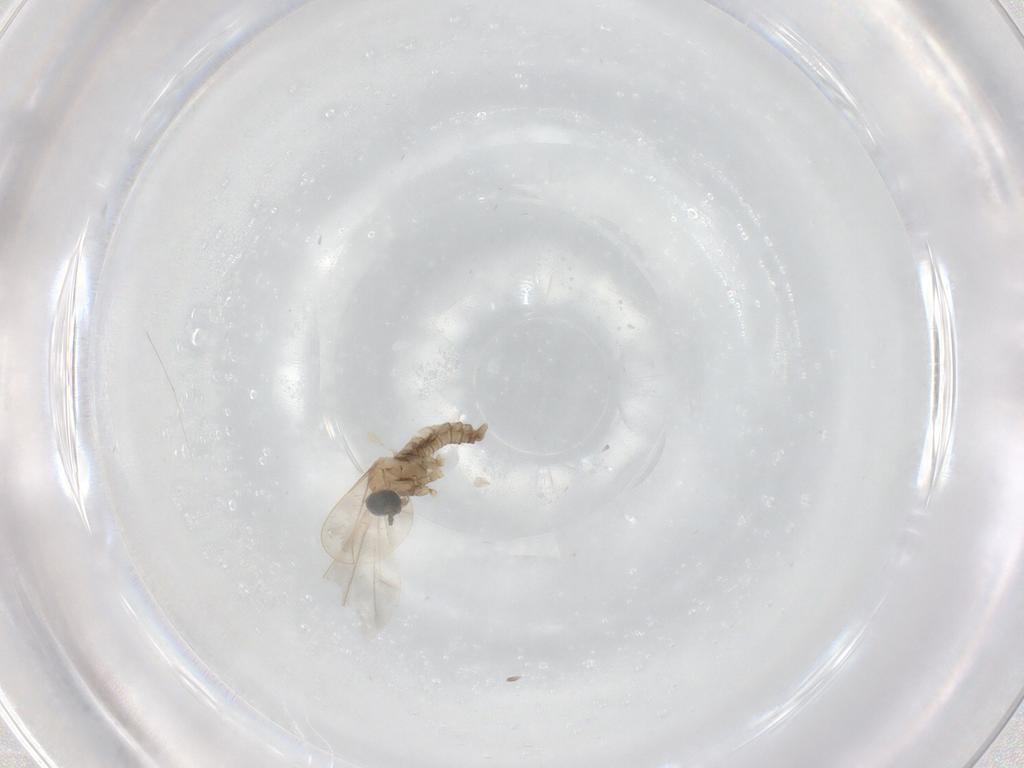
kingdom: Animalia
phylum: Arthropoda
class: Insecta
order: Diptera
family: Chironomidae
